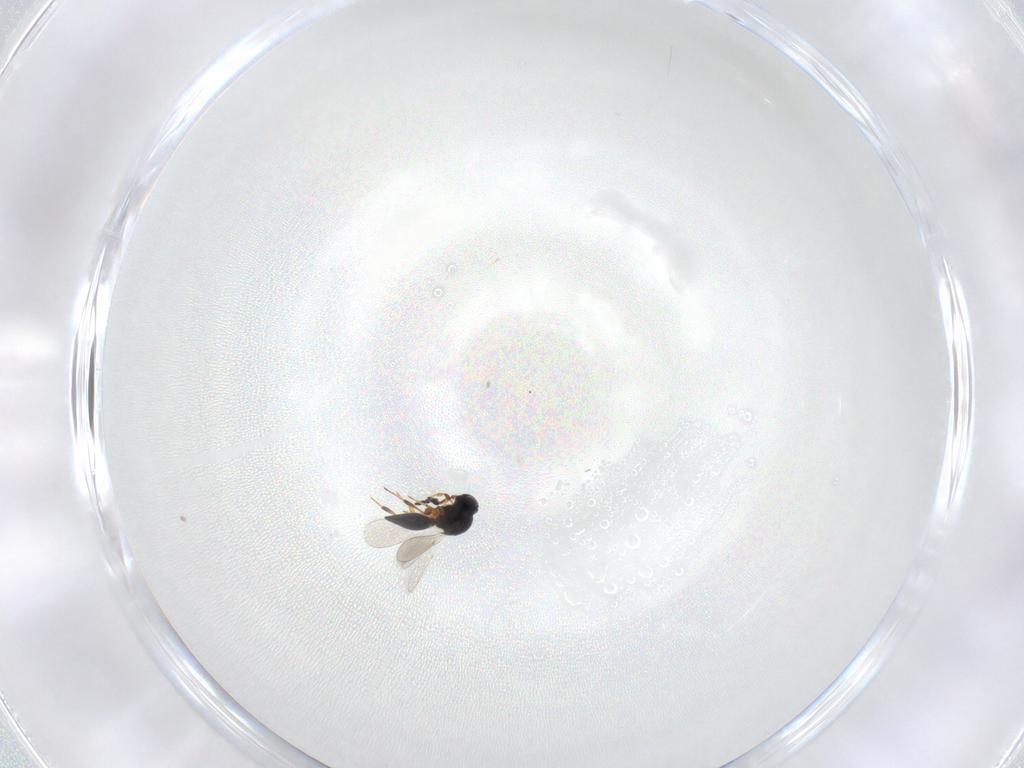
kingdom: Animalia
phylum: Arthropoda
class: Insecta
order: Hymenoptera
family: Platygastridae
